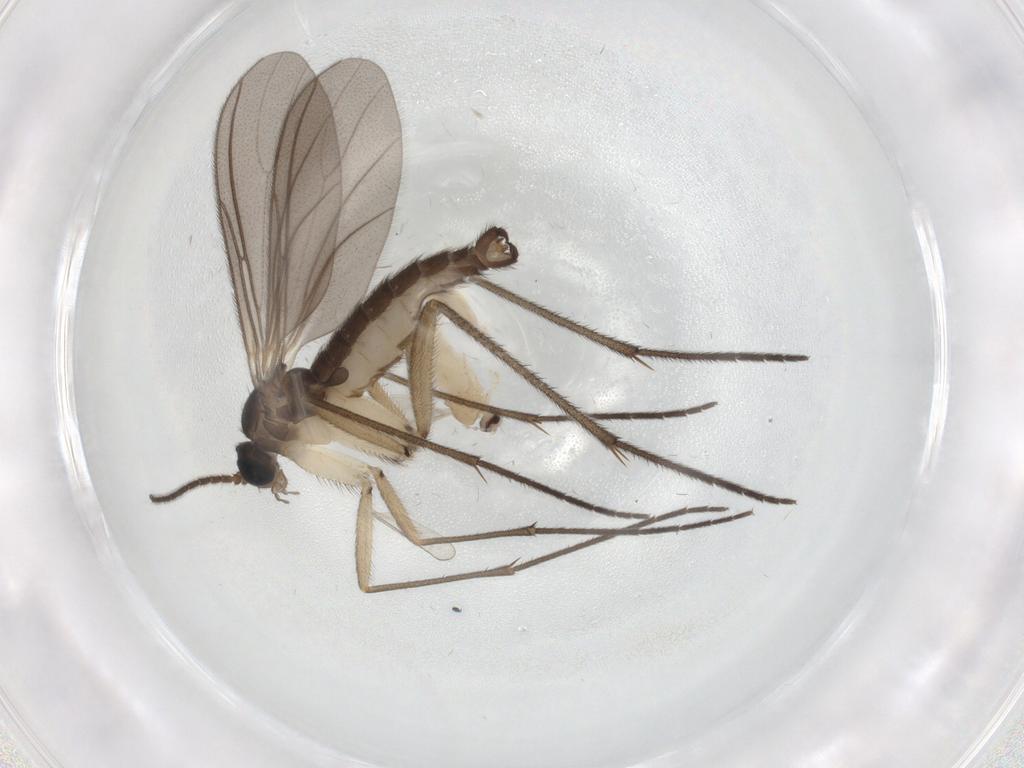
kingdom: Animalia
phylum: Arthropoda
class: Insecta
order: Diptera
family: Sciaridae
